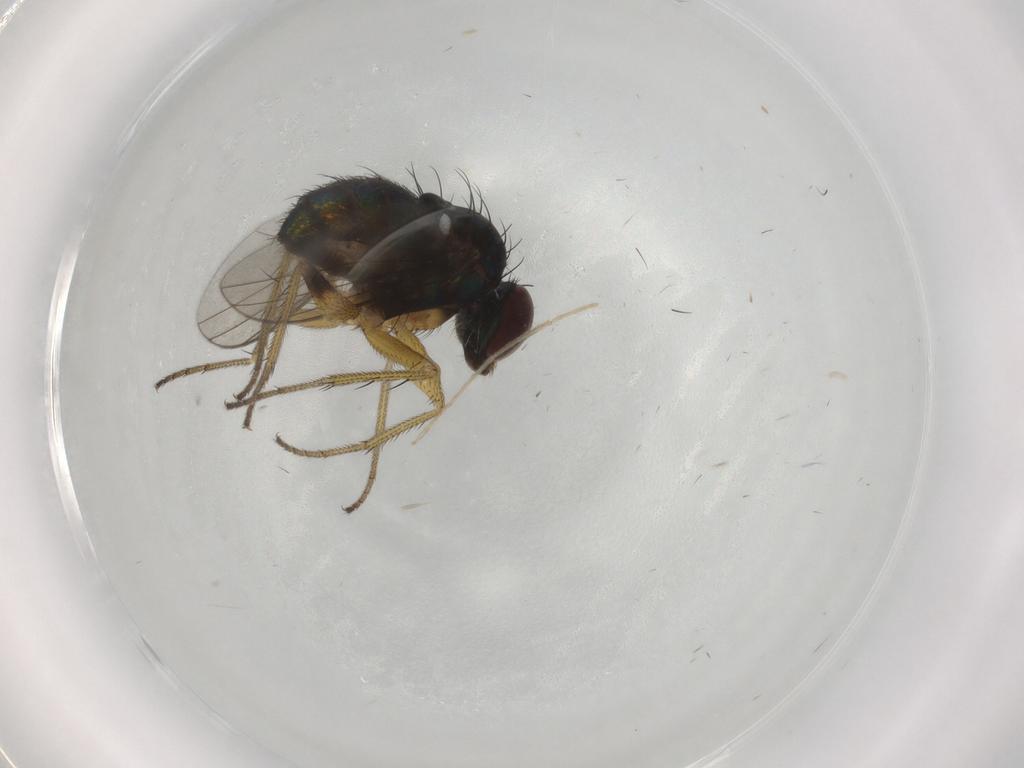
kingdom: Animalia
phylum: Arthropoda
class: Insecta
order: Diptera
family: Dolichopodidae
